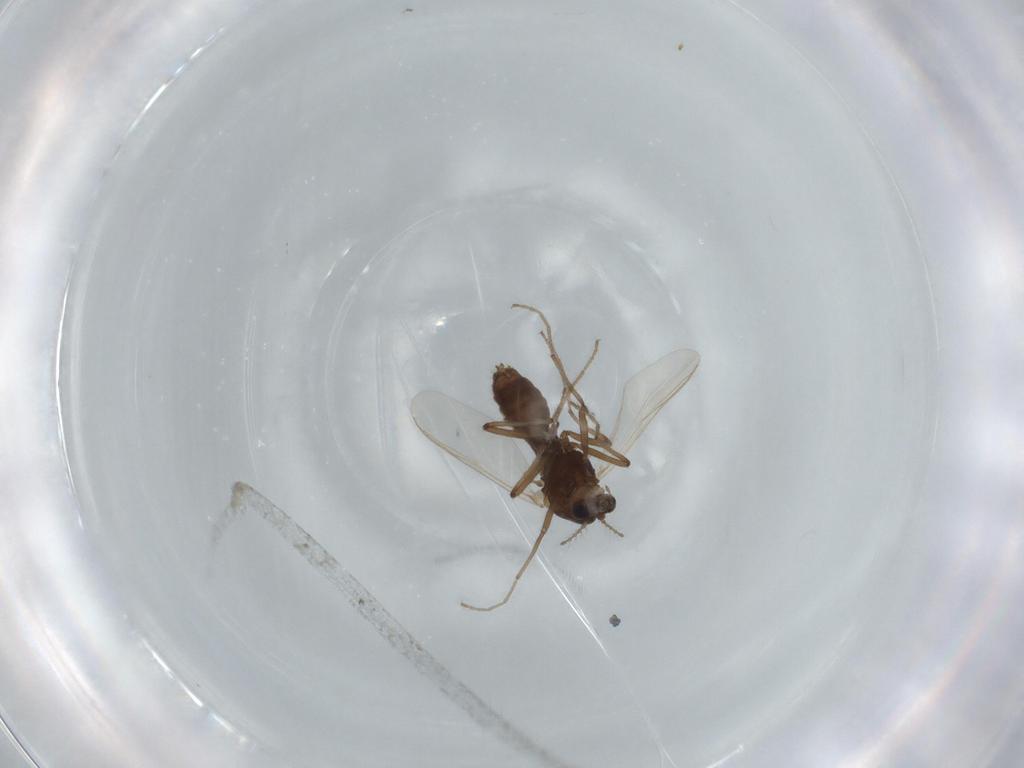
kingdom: Animalia
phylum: Arthropoda
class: Insecta
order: Diptera
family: Chironomidae
